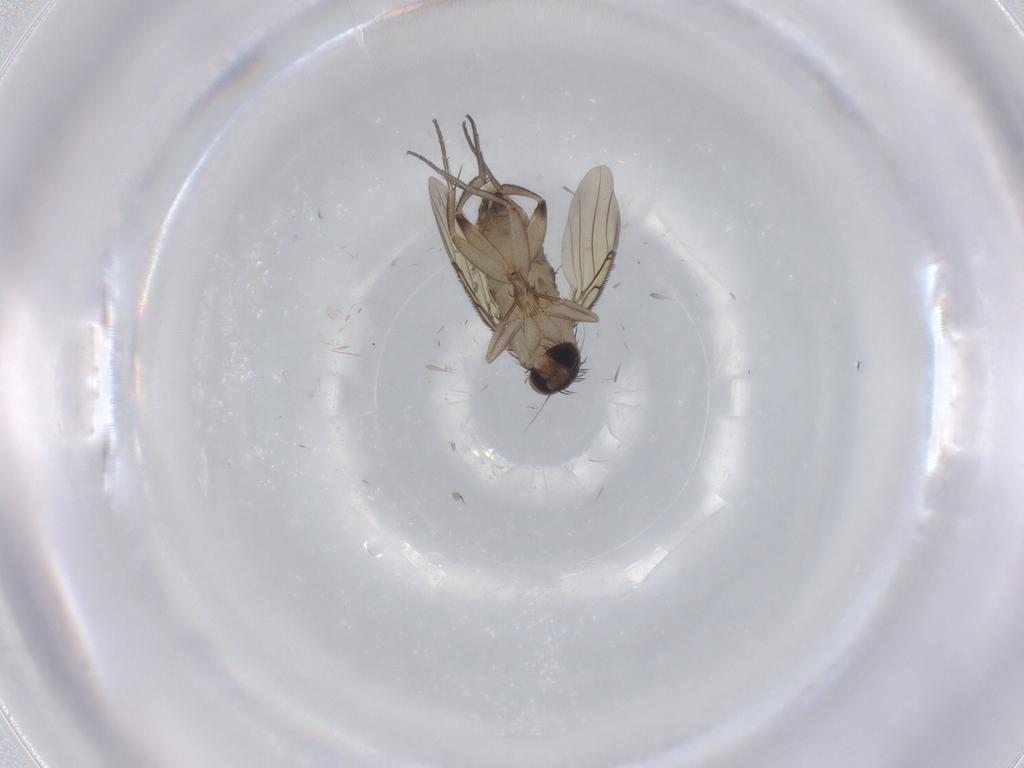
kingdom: Animalia
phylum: Arthropoda
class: Insecta
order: Diptera
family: Phoridae
